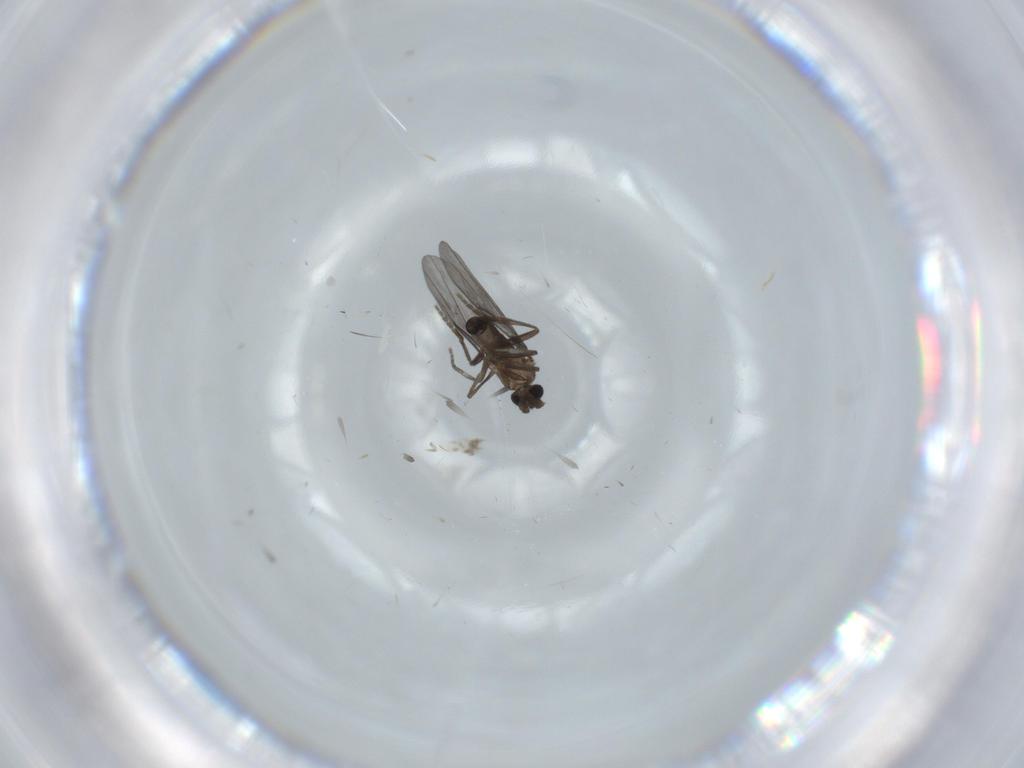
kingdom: Animalia
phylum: Arthropoda
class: Insecta
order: Diptera
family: Phoridae
